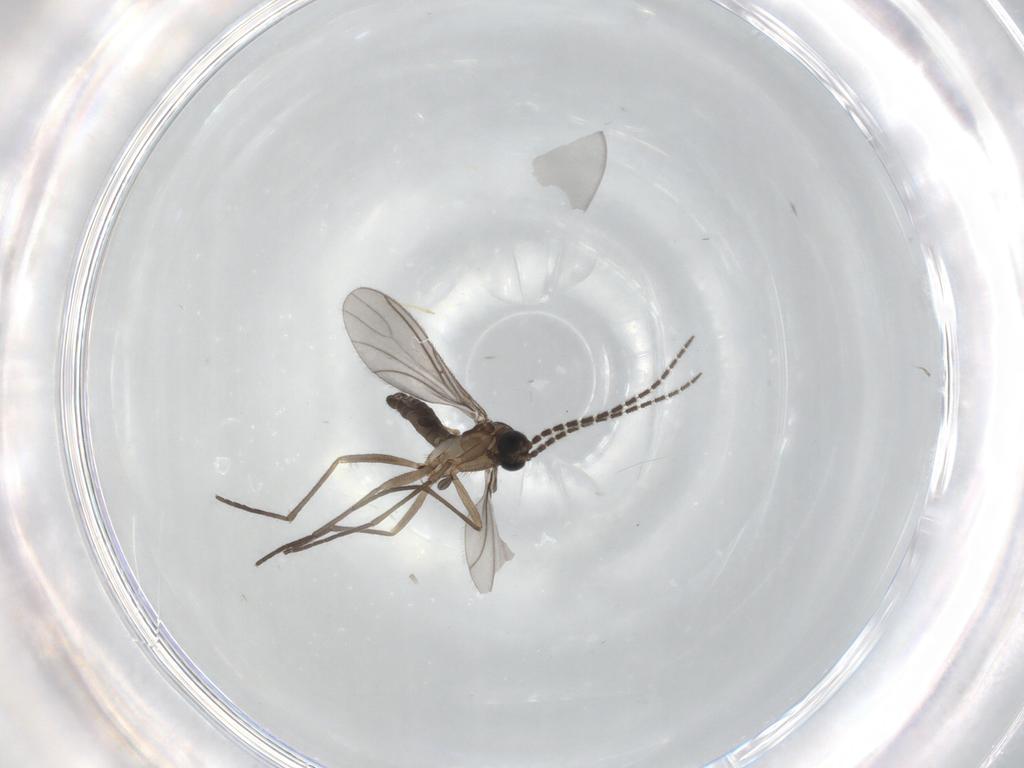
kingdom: Animalia
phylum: Arthropoda
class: Insecta
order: Diptera
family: Sciaridae
